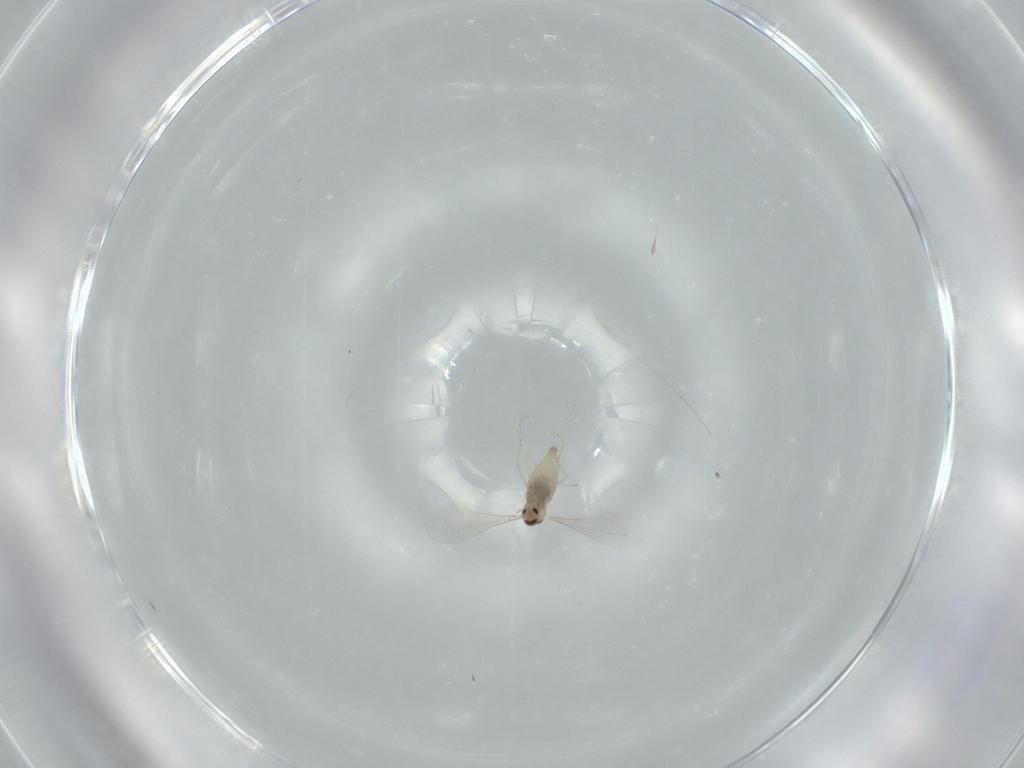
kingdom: Animalia
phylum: Arthropoda
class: Insecta
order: Diptera
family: Cecidomyiidae
